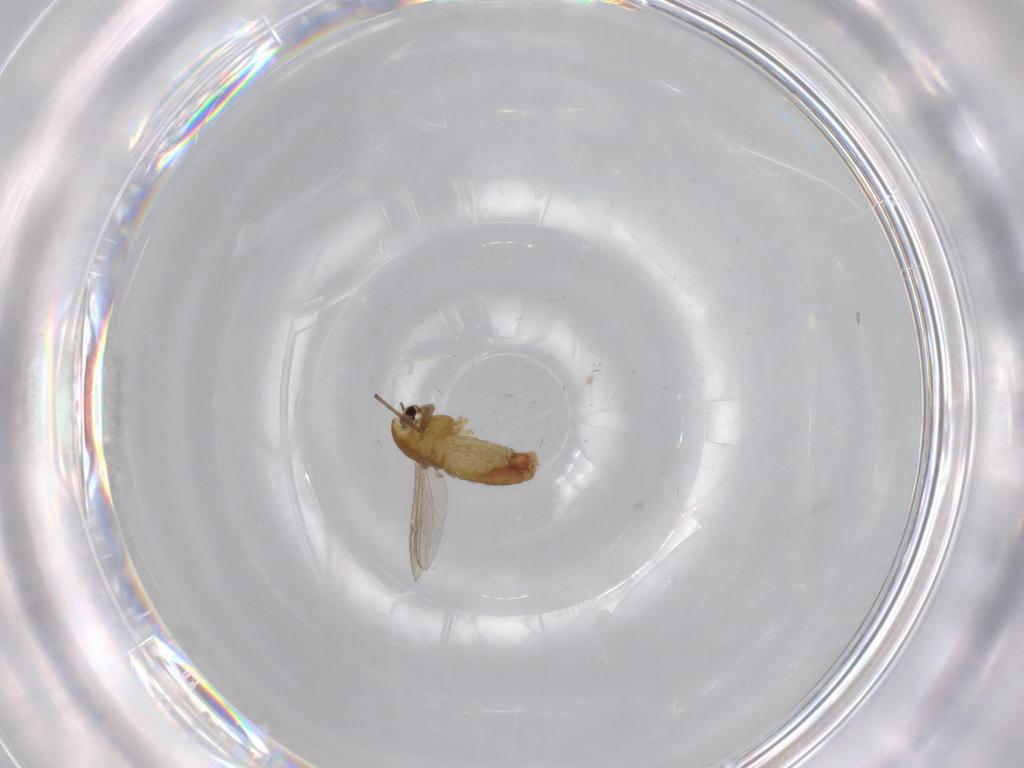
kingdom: Animalia
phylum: Arthropoda
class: Insecta
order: Diptera
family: Chironomidae
